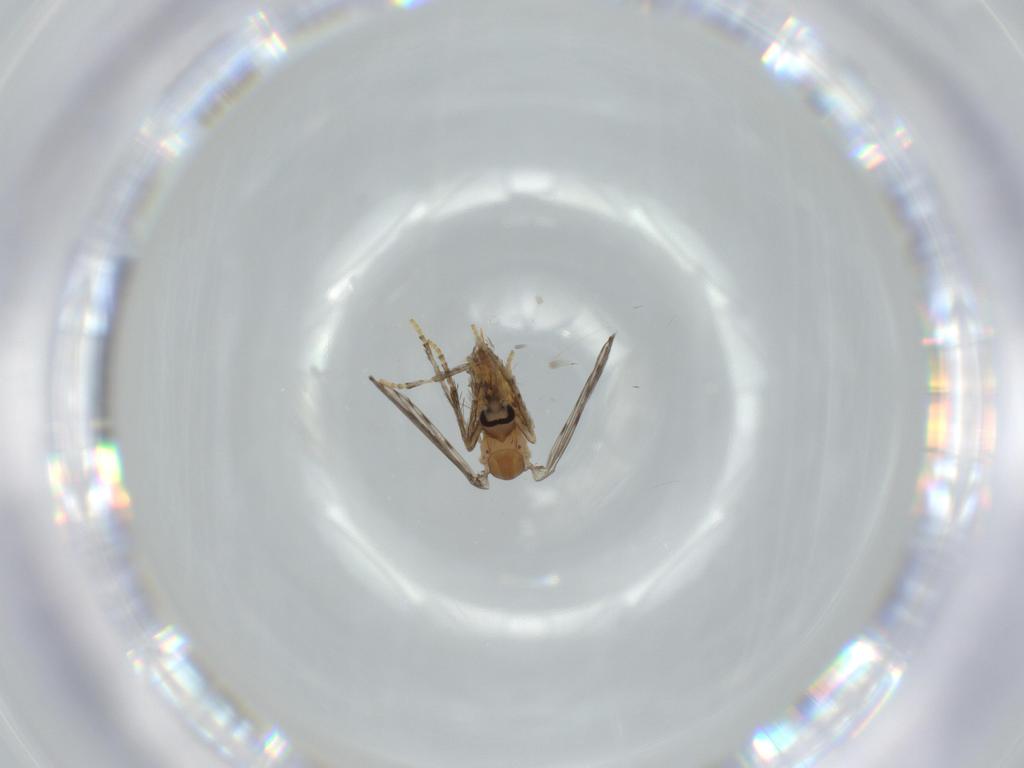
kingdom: Animalia
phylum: Arthropoda
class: Insecta
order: Diptera
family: Psychodidae
